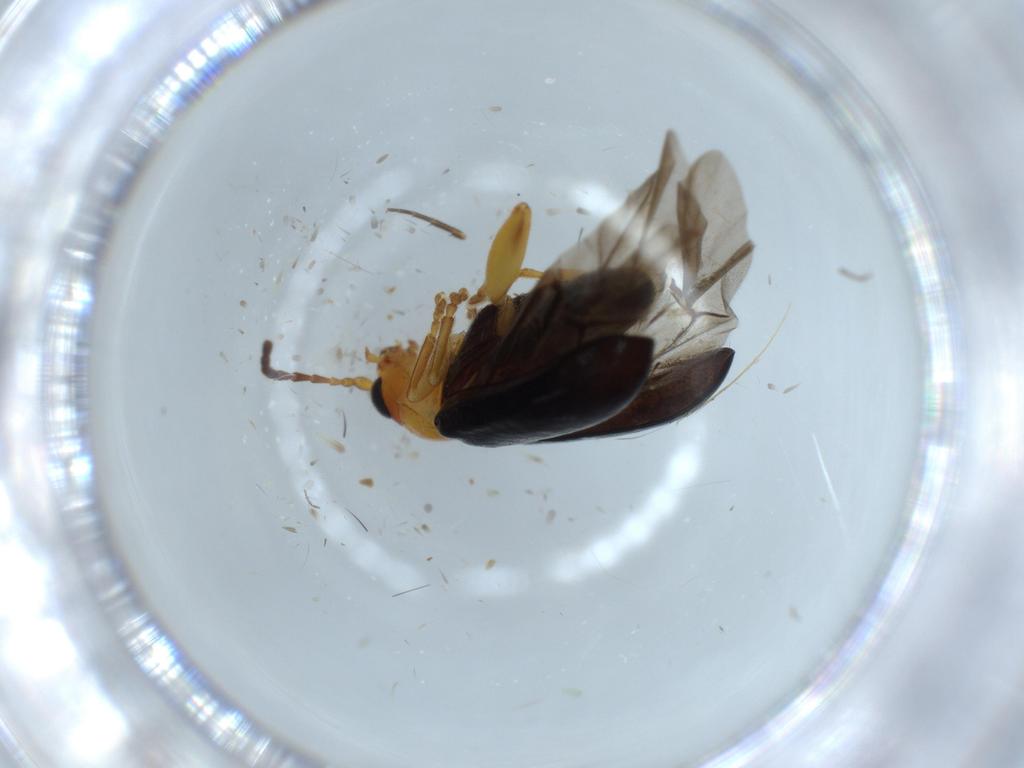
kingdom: Animalia
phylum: Arthropoda
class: Insecta
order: Coleoptera
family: Chrysomelidae
